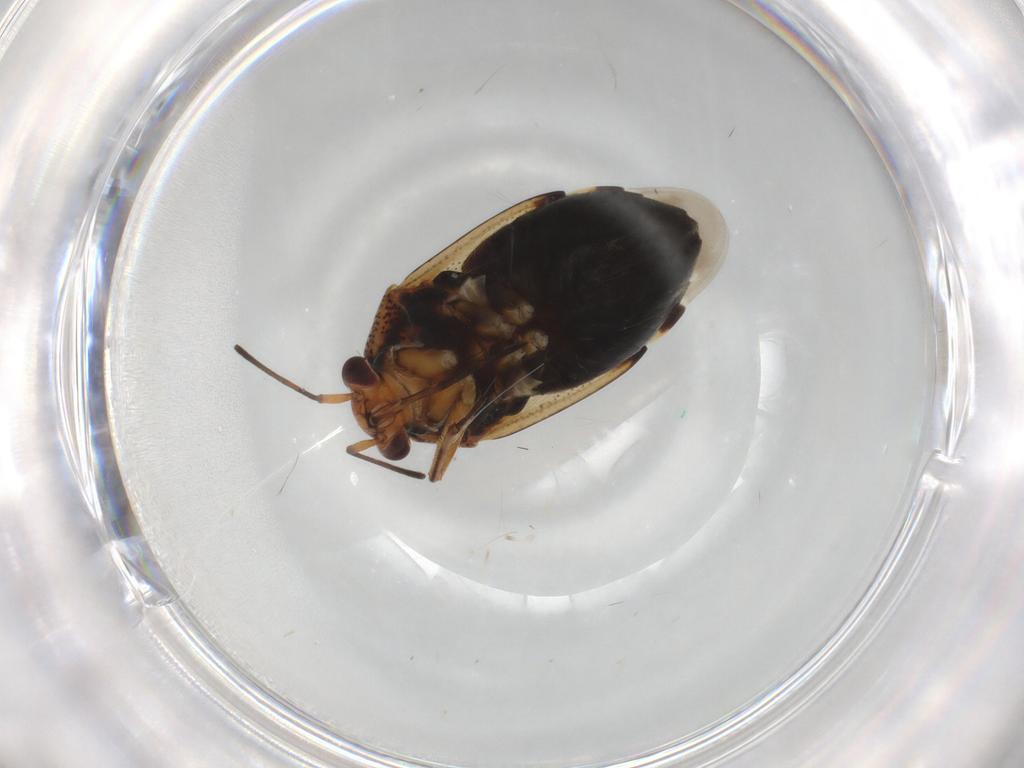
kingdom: Animalia
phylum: Arthropoda
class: Insecta
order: Hemiptera
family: Miridae
